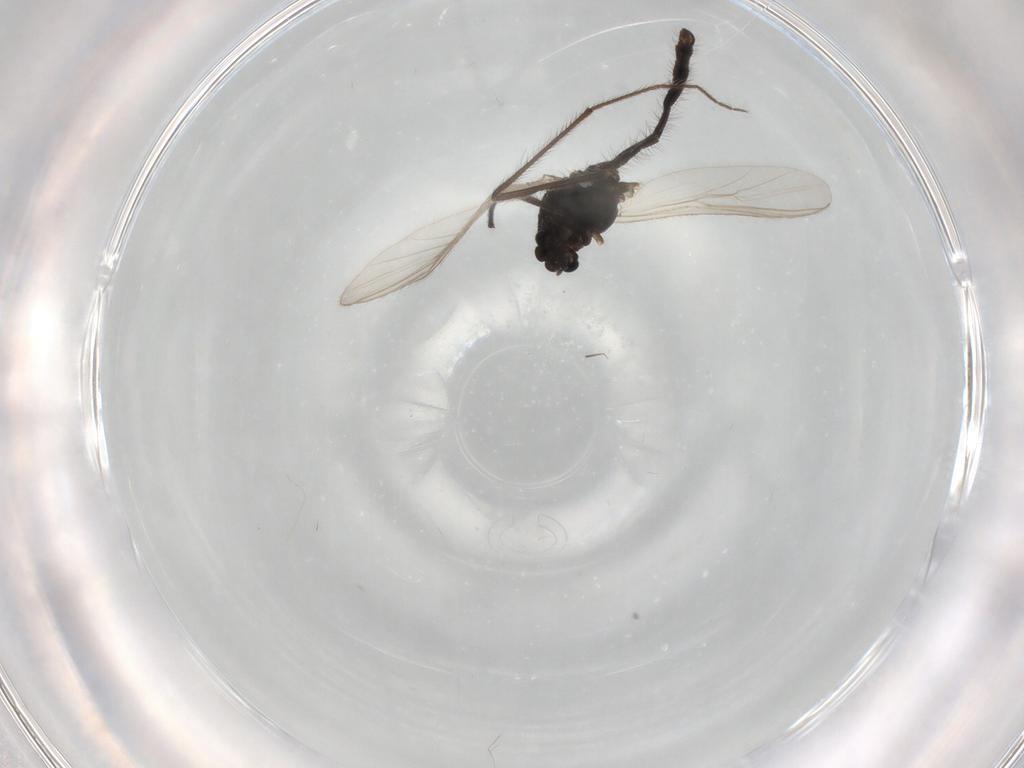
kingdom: Animalia
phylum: Arthropoda
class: Insecta
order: Diptera
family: Chironomidae
